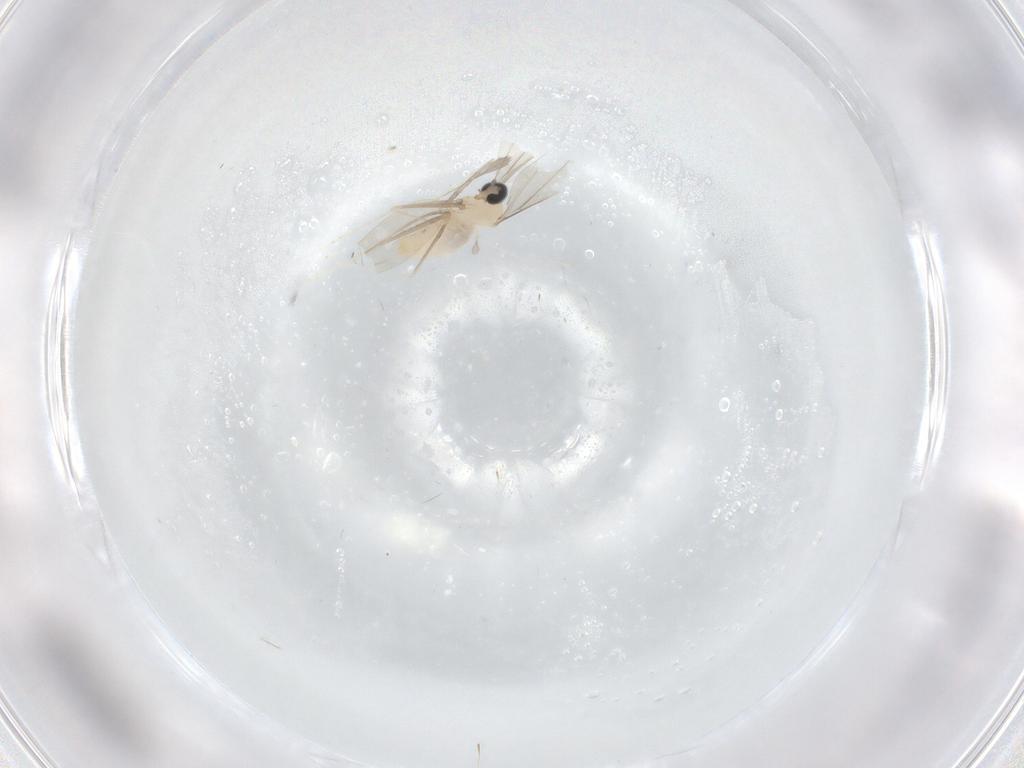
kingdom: Animalia
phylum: Arthropoda
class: Insecta
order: Diptera
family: Cecidomyiidae
